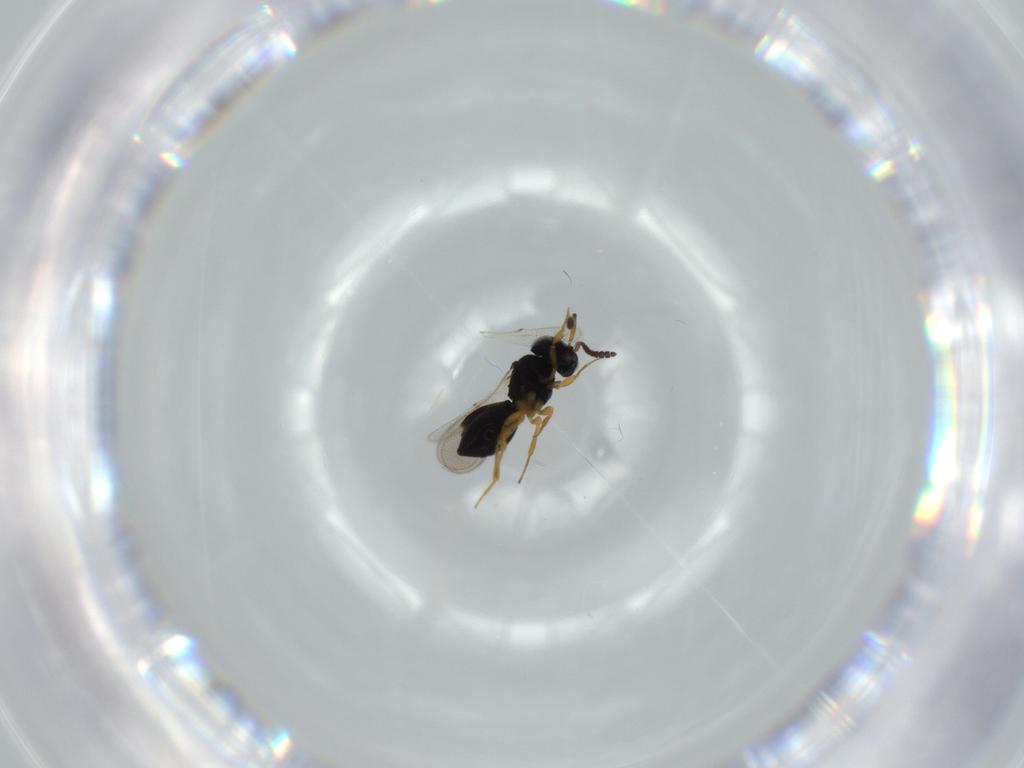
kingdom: Animalia
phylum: Arthropoda
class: Insecta
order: Hymenoptera
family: Scelionidae
